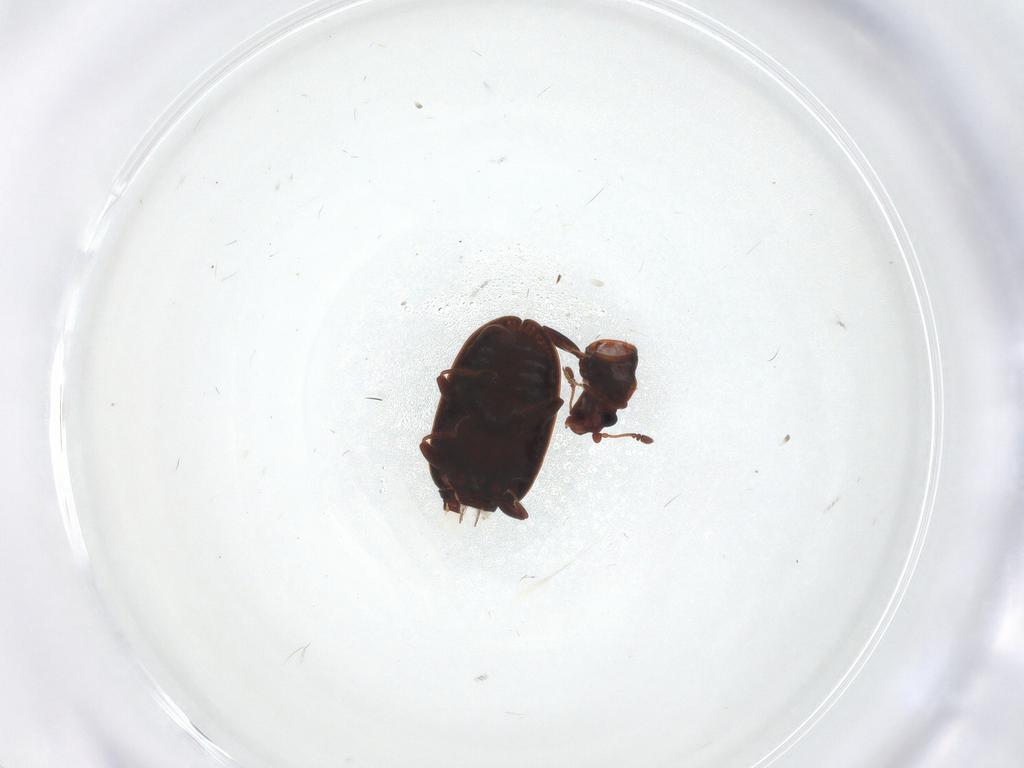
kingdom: Animalia
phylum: Arthropoda
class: Insecta
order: Coleoptera
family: Latridiidae
